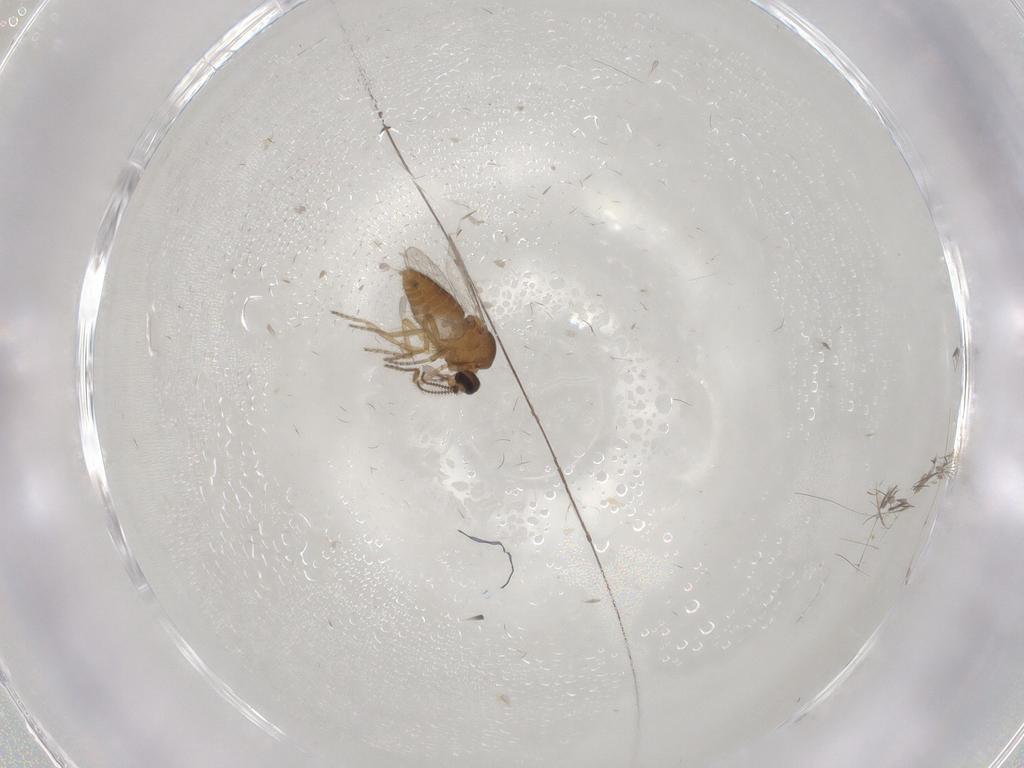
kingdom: Animalia
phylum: Arthropoda
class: Insecta
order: Diptera
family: Ceratopogonidae
